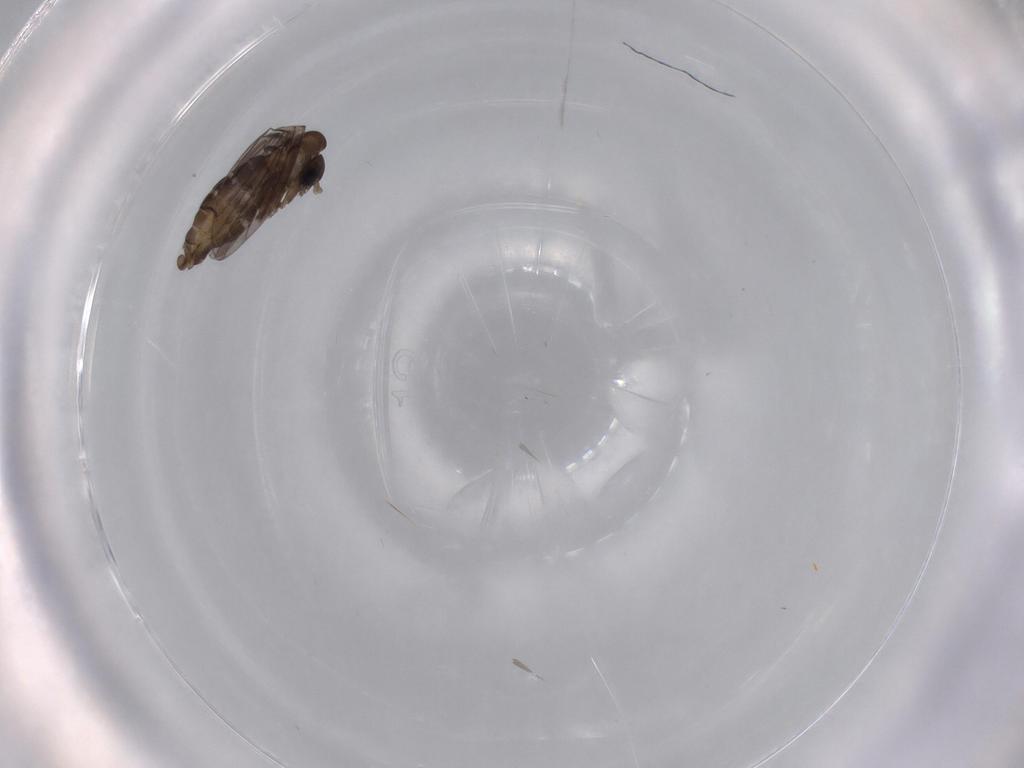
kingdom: Animalia
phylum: Arthropoda
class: Insecta
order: Diptera
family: Psychodidae
